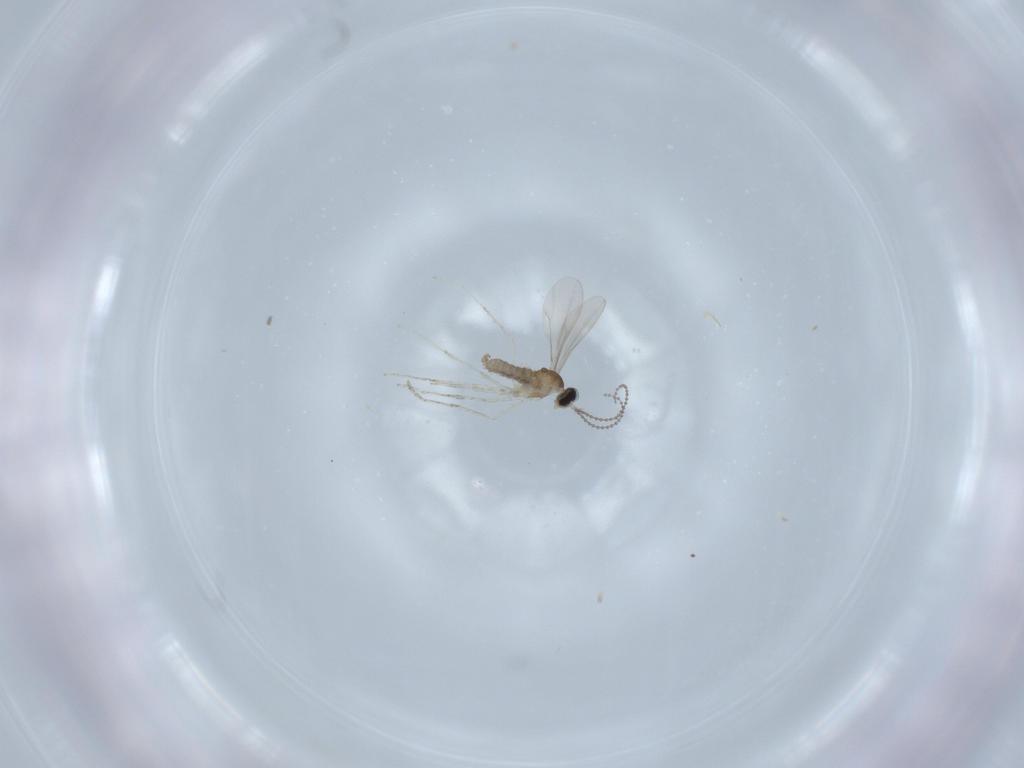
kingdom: Animalia
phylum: Arthropoda
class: Insecta
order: Diptera
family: Chironomidae
